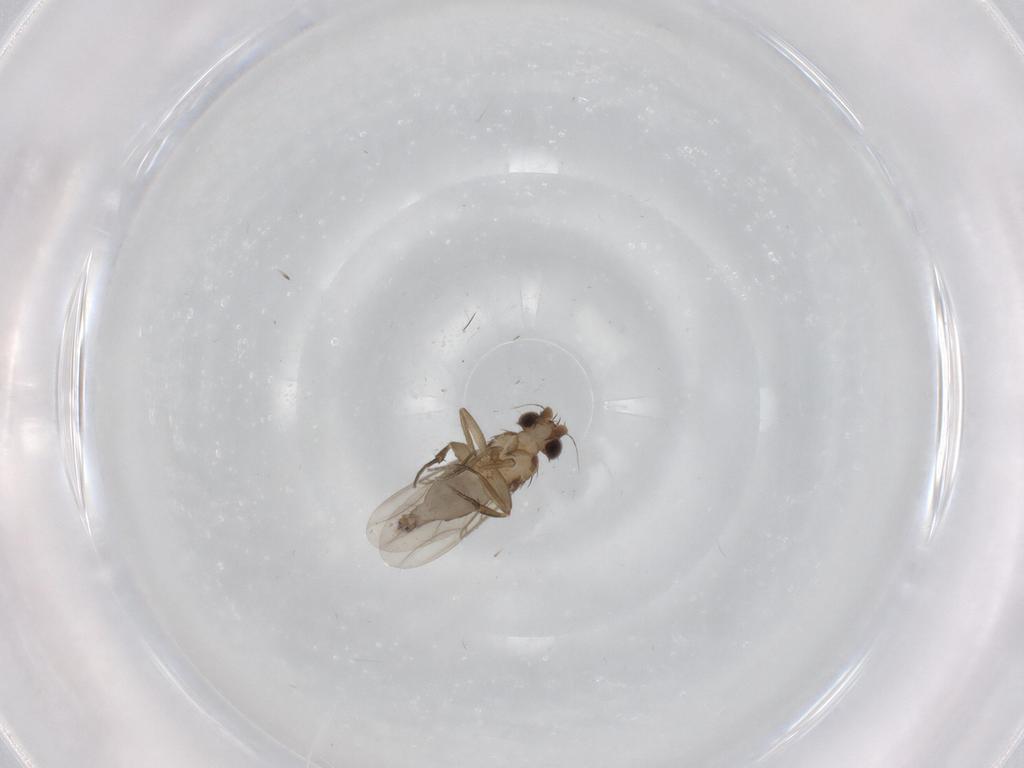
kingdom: Animalia
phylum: Arthropoda
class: Insecta
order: Diptera
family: Phoridae
